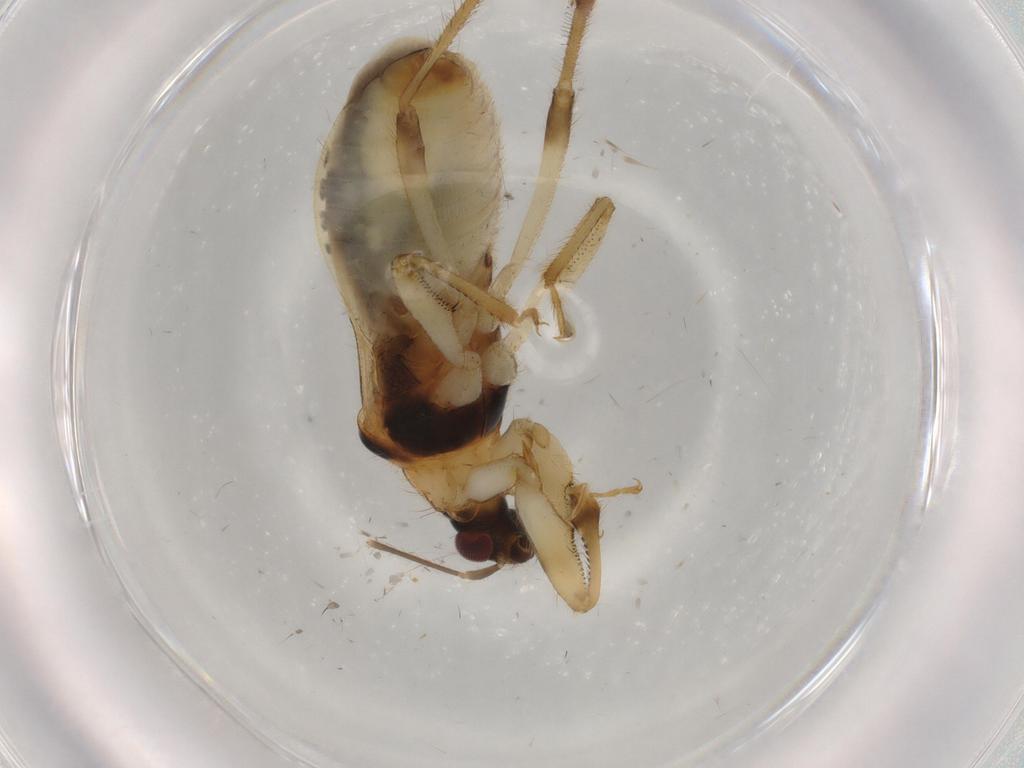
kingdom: Animalia
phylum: Arthropoda
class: Insecta
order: Hemiptera
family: Nabidae
